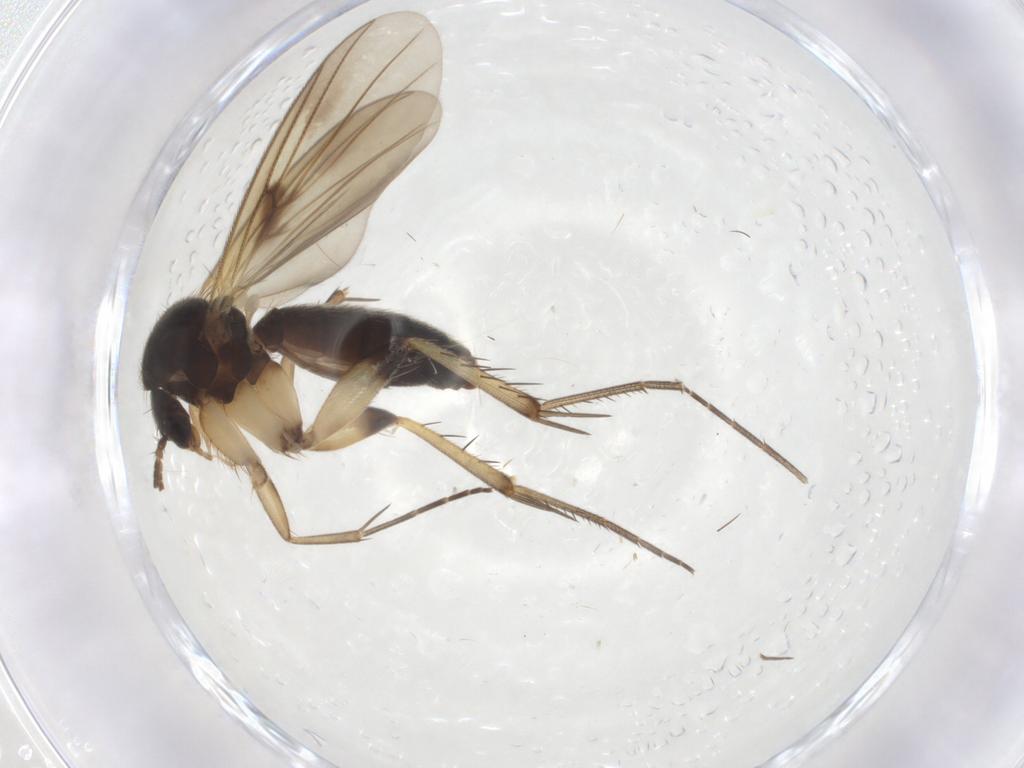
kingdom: Animalia
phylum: Arthropoda
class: Insecta
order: Diptera
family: Mycetophilidae
